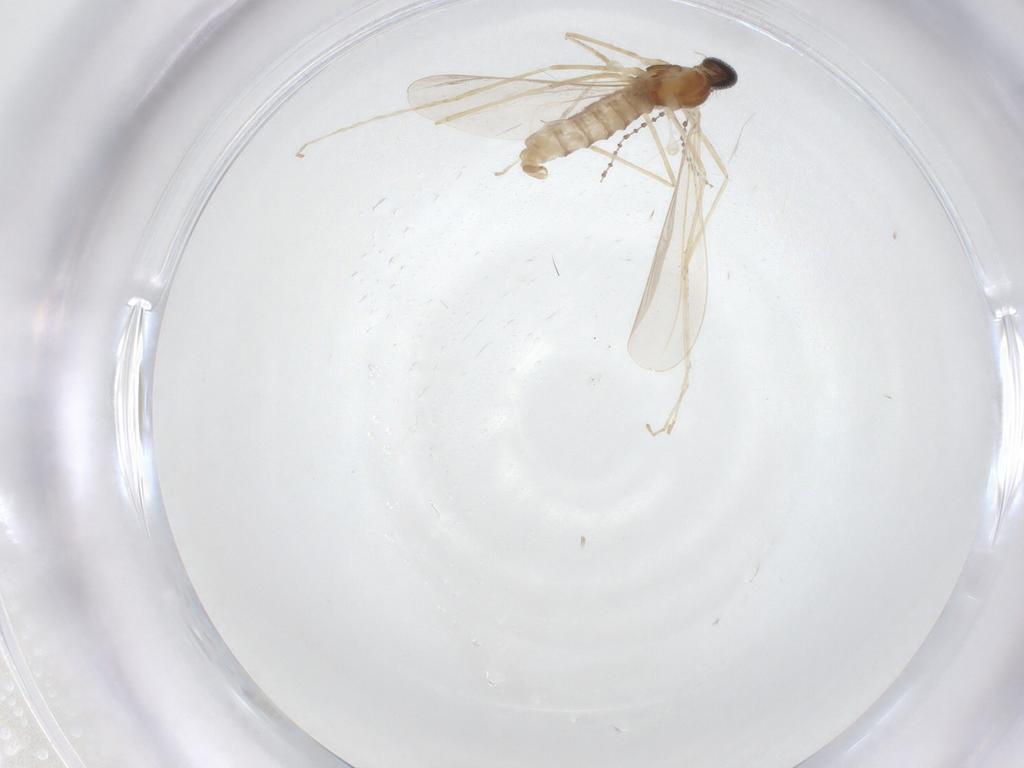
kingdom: Animalia
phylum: Arthropoda
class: Insecta
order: Diptera
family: Cecidomyiidae
